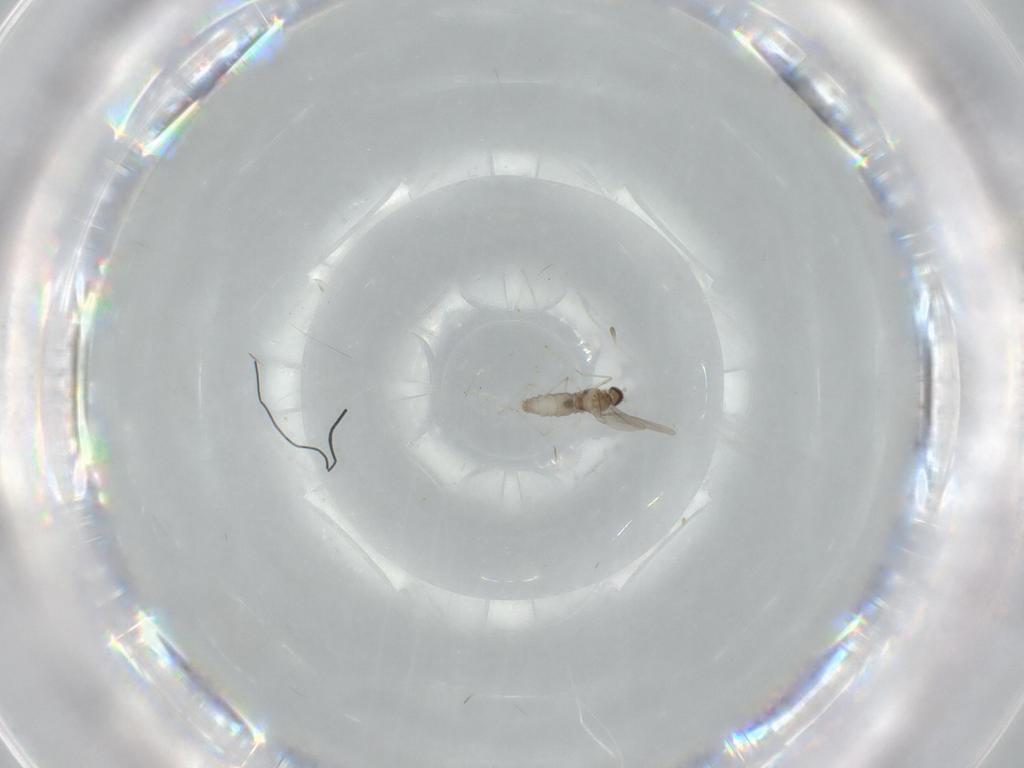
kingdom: Animalia
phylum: Arthropoda
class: Insecta
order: Diptera
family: Cecidomyiidae
